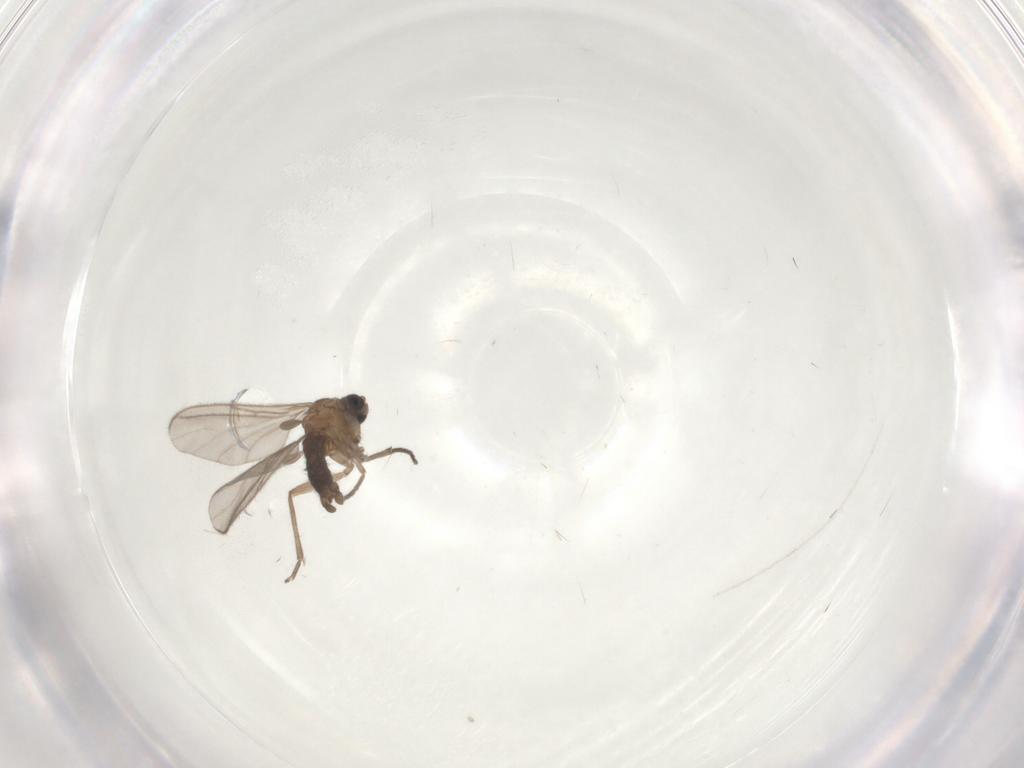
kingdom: Animalia
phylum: Arthropoda
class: Insecta
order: Diptera
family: Sciaridae
